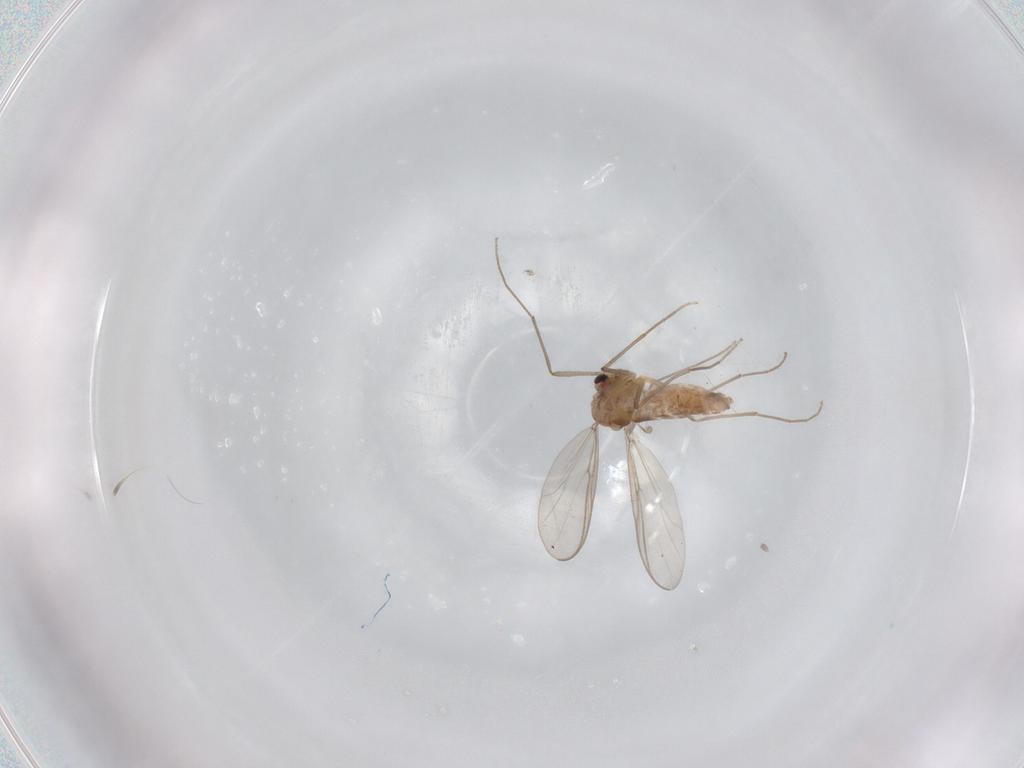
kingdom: Animalia
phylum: Arthropoda
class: Insecta
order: Diptera
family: Chironomidae
